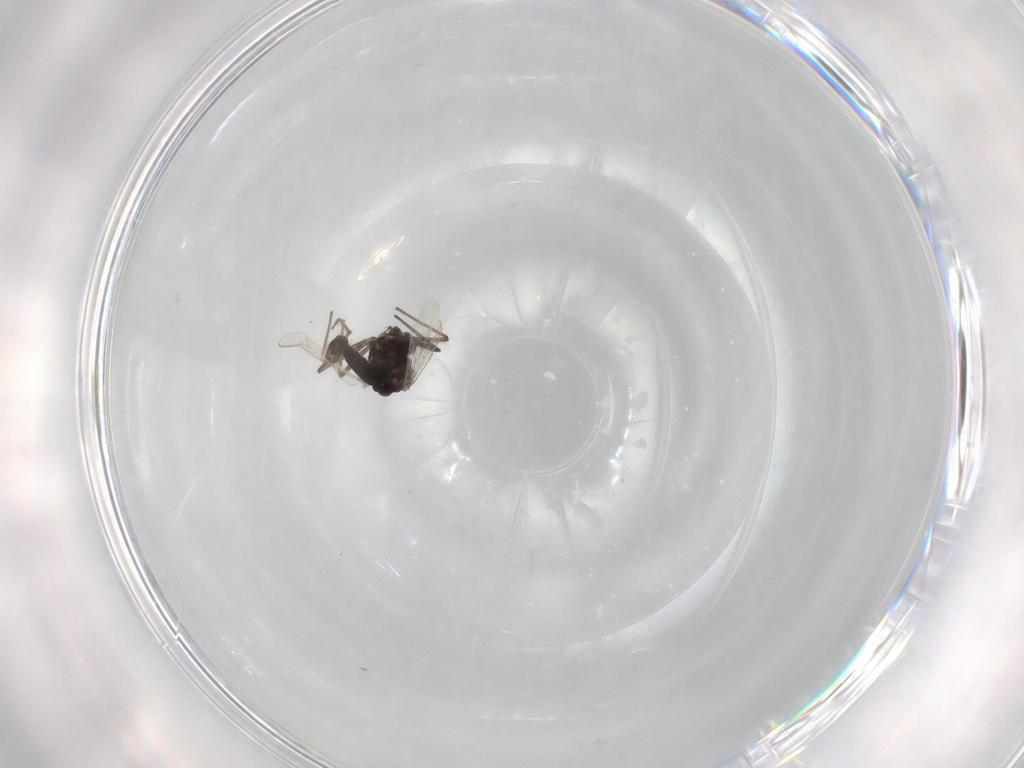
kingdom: Animalia
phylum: Arthropoda
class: Insecta
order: Diptera
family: Chironomidae
